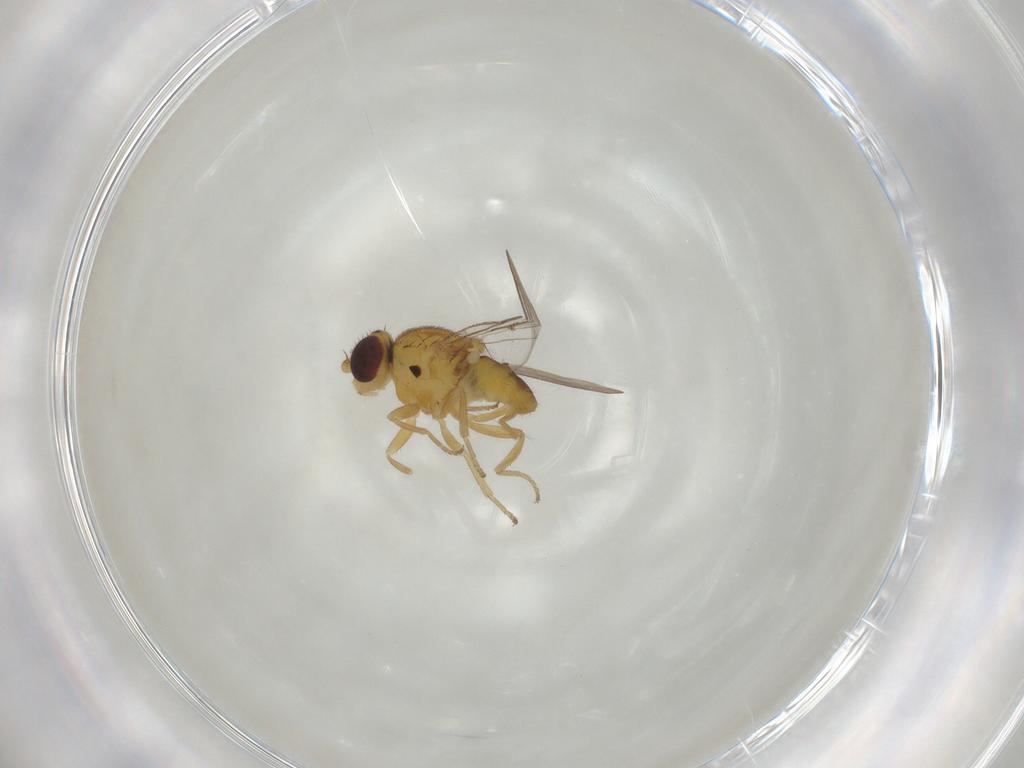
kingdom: Animalia
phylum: Arthropoda
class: Insecta
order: Diptera
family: Chloropidae
